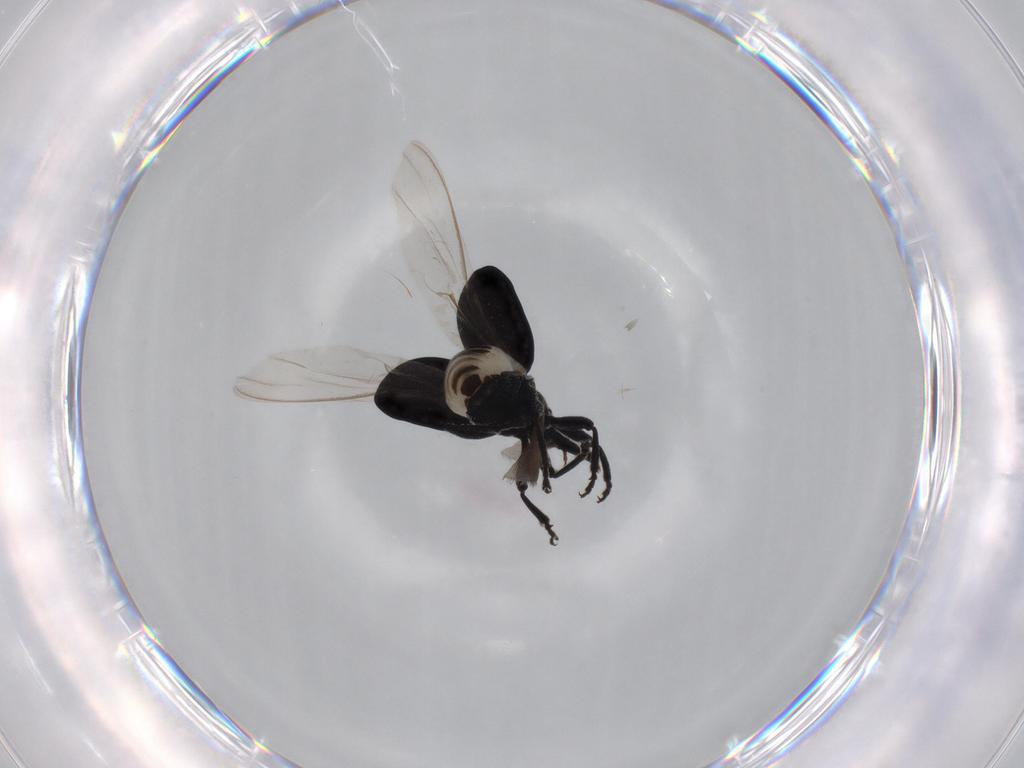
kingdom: Animalia
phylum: Arthropoda
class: Insecta
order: Coleoptera
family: Brentidae
